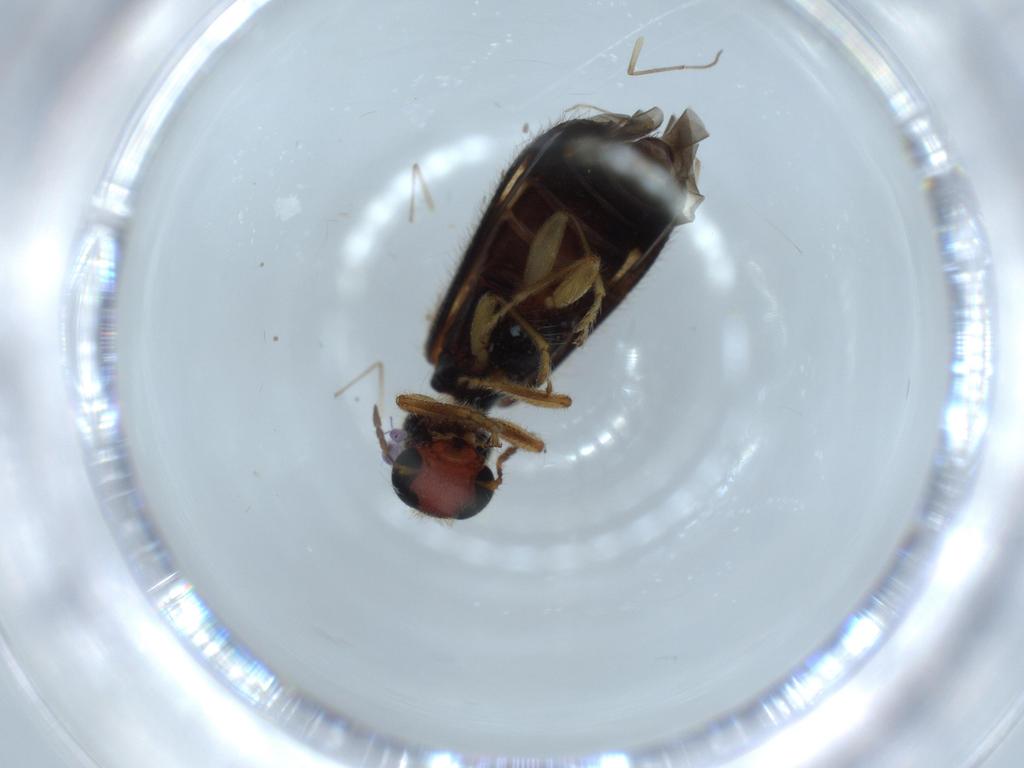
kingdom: Animalia
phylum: Arthropoda
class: Insecta
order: Coleoptera
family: Cleridae
